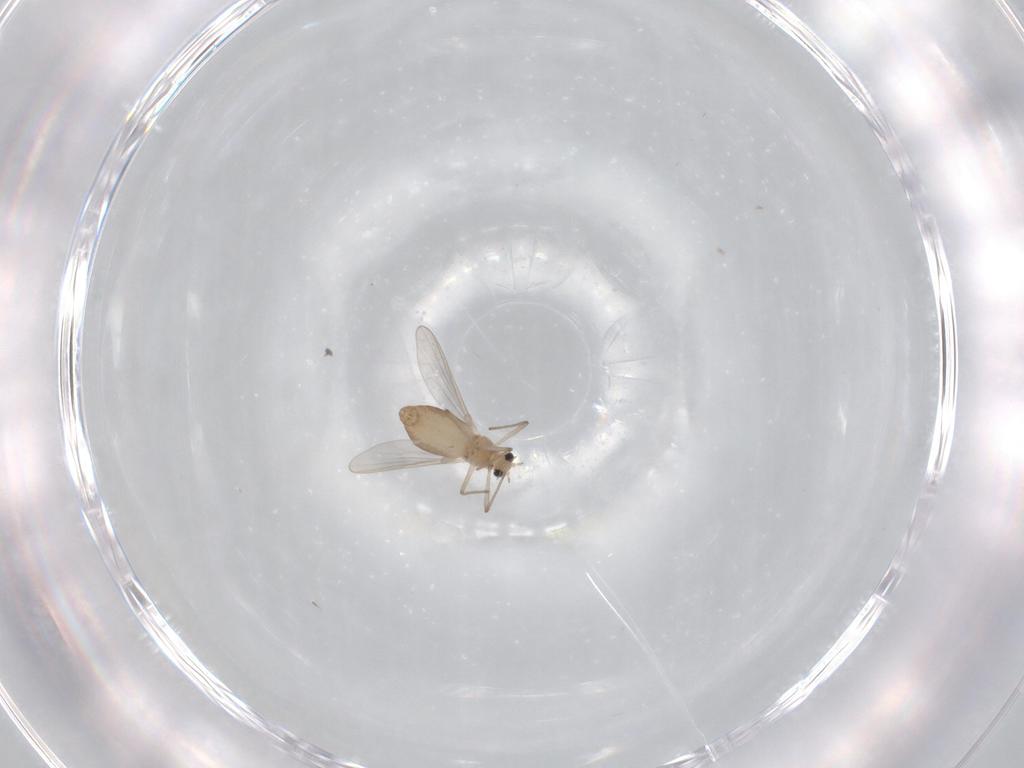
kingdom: Animalia
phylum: Arthropoda
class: Insecta
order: Diptera
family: Chironomidae
